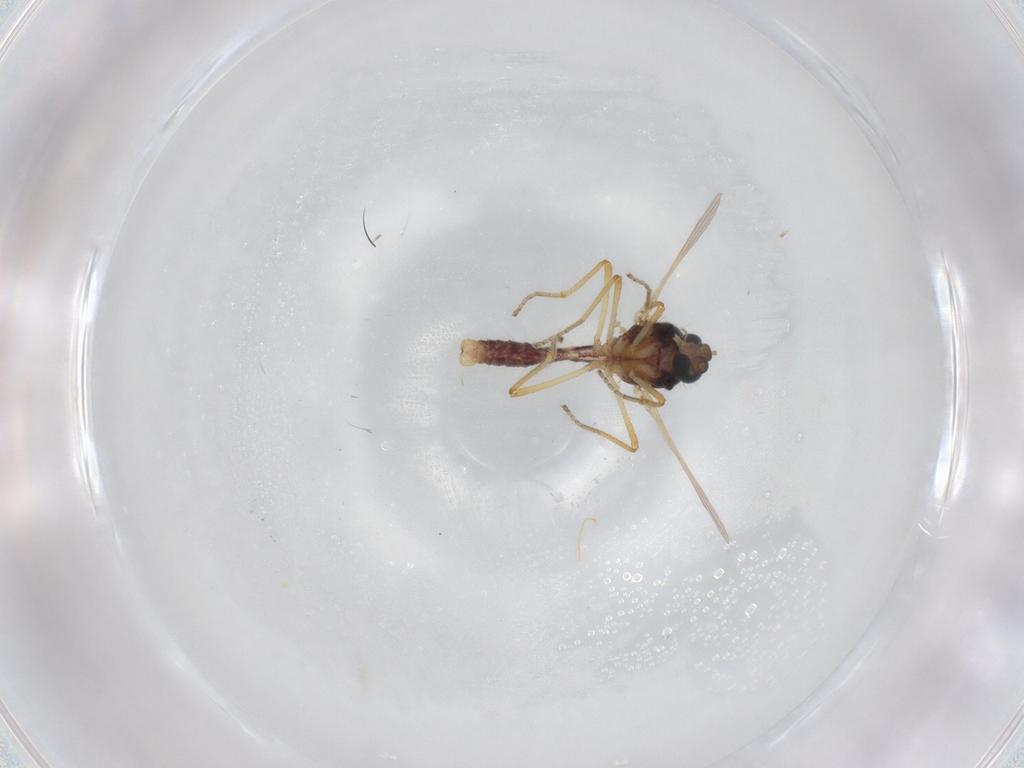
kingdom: Animalia
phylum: Arthropoda
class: Insecta
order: Diptera
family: Ceratopogonidae
